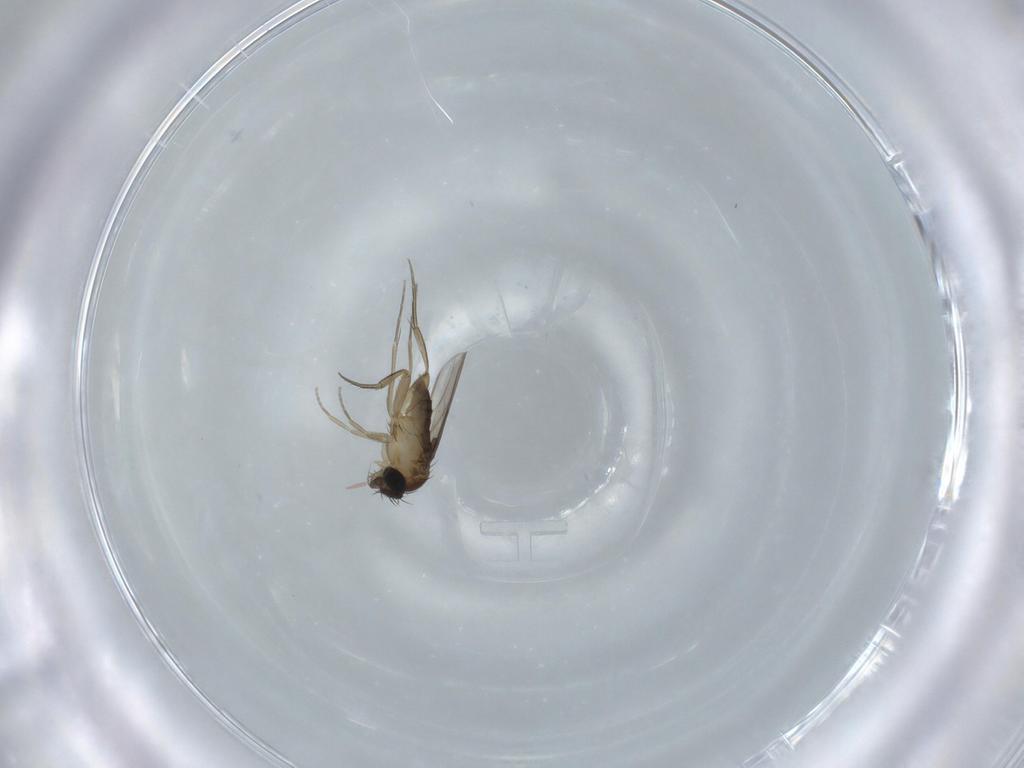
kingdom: Animalia
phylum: Arthropoda
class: Insecta
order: Diptera
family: Phoridae
